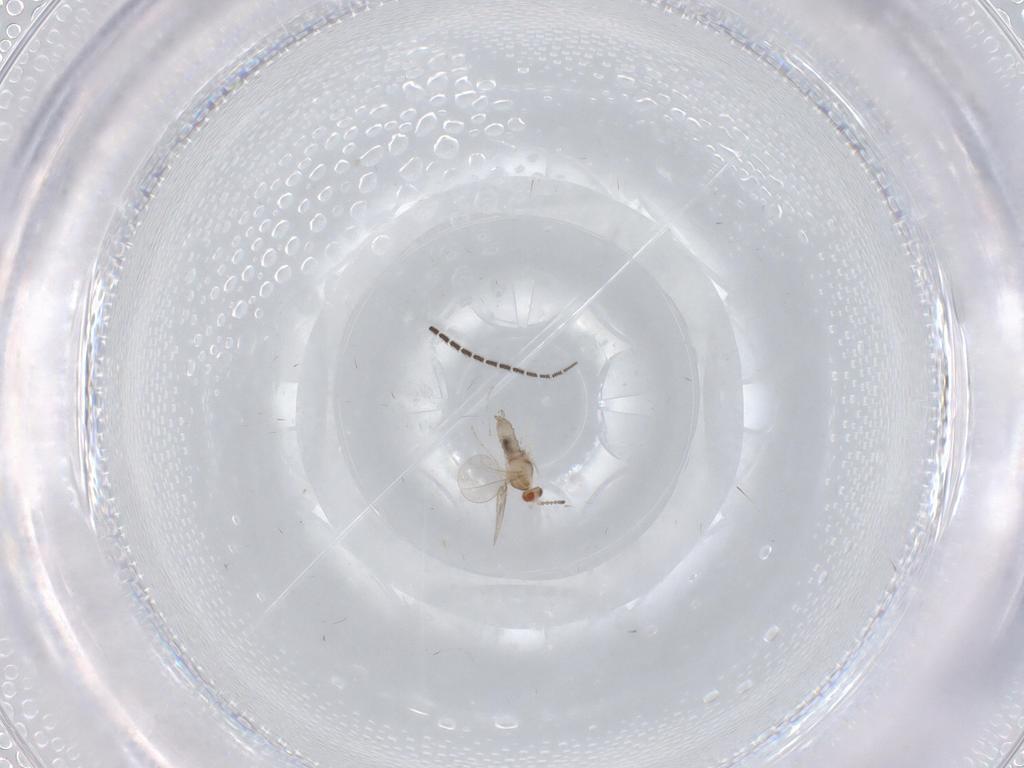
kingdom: Animalia
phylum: Arthropoda
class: Insecta
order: Diptera
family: Cecidomyiidae
